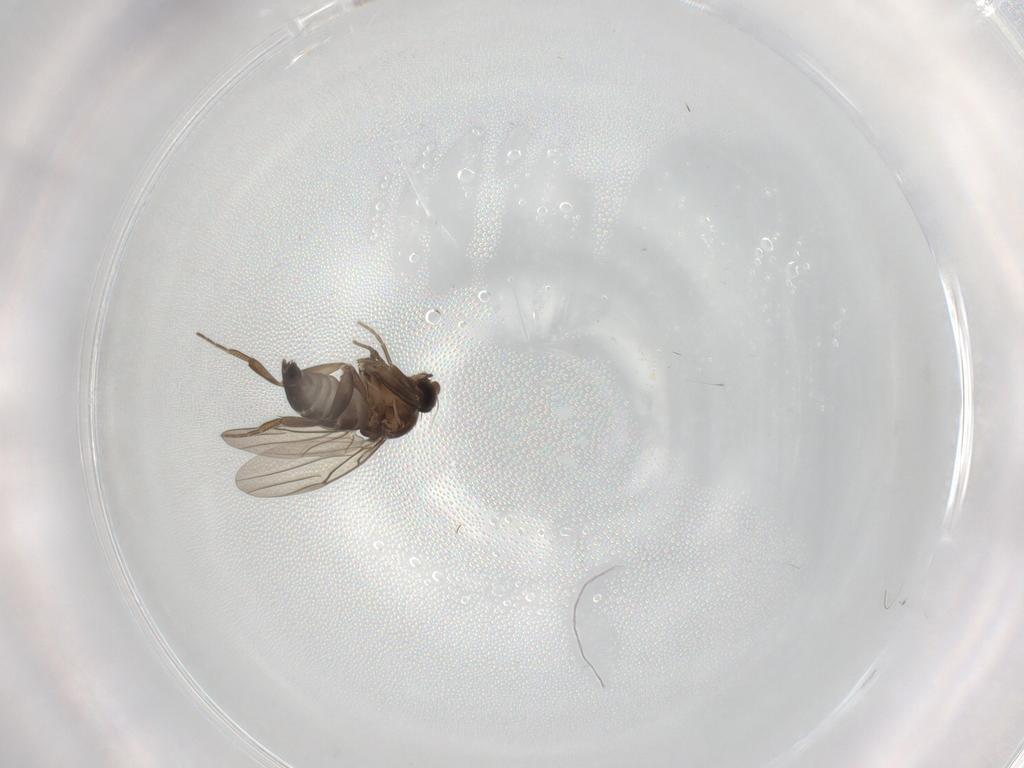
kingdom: Animalia
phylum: Arthropoda
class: Insecta
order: Diptera
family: Phoridae
